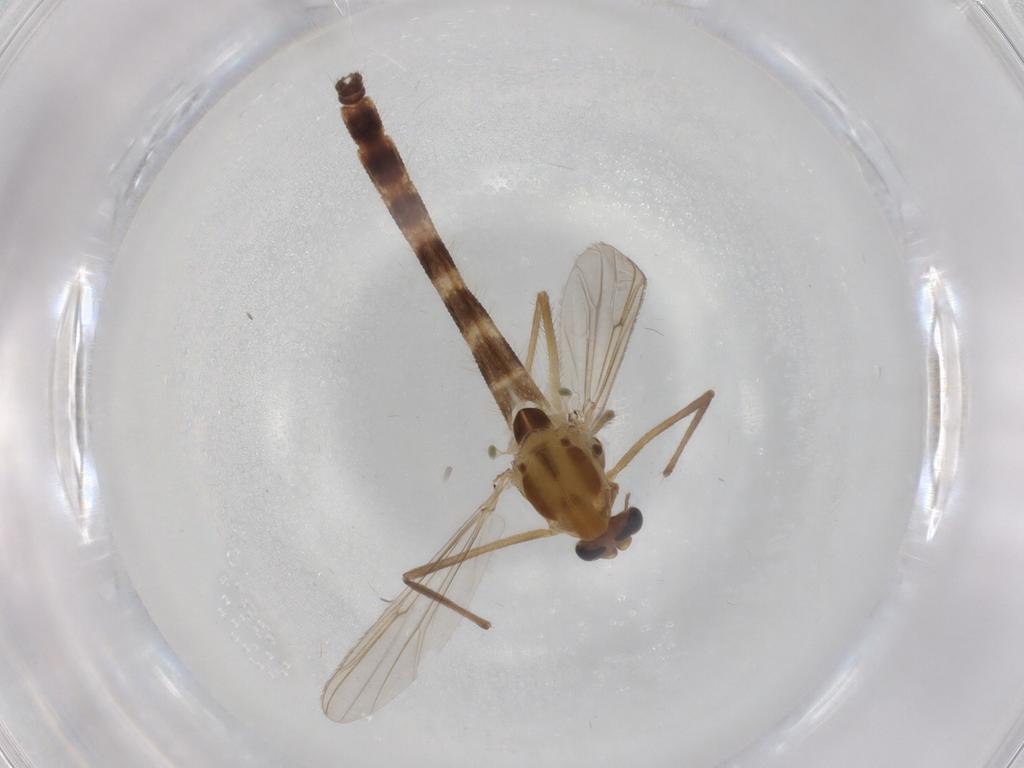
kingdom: Animalia
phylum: Arthropoda
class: Insecta
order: Diptera
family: Chironomidae
